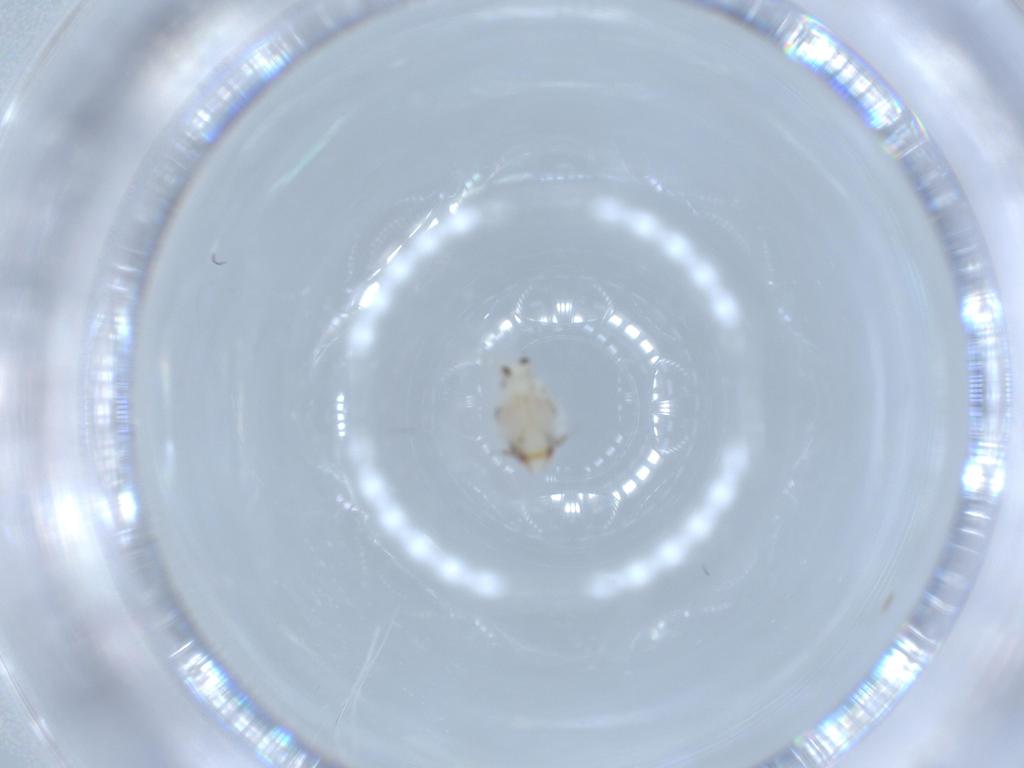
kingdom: Animalia
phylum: Arthropoda
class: Insecta
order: Hemiptera
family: Nogodinidae
